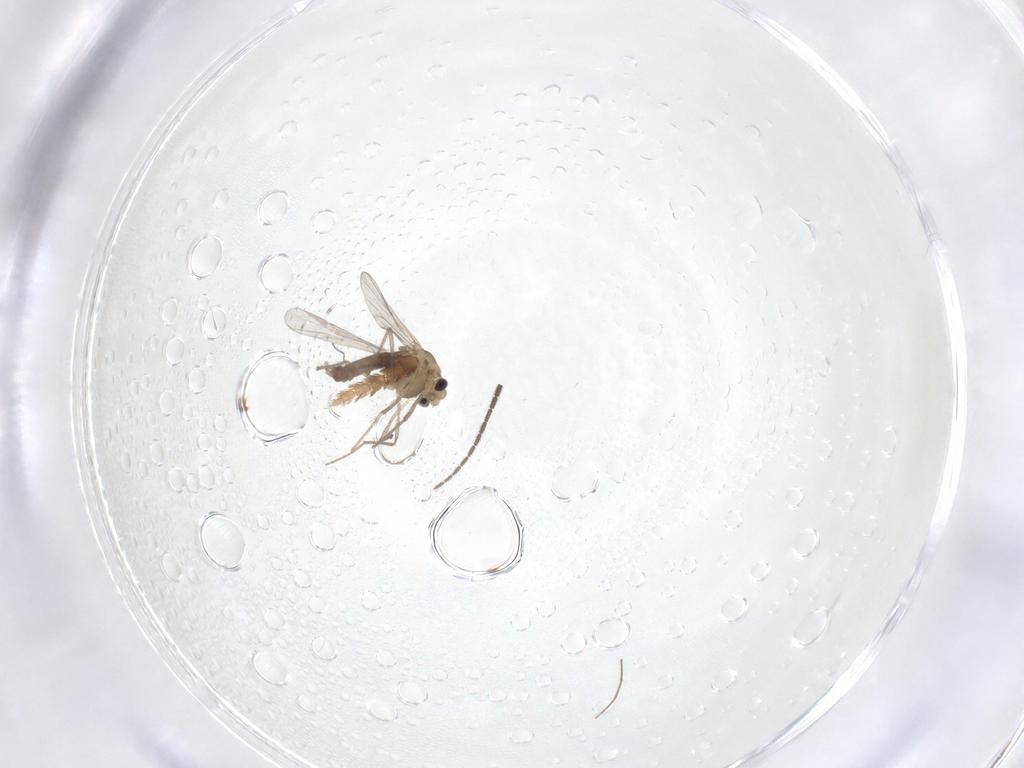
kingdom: Animalia
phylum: Arthropoda
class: Insecta
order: Diptera
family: Chironomidae
